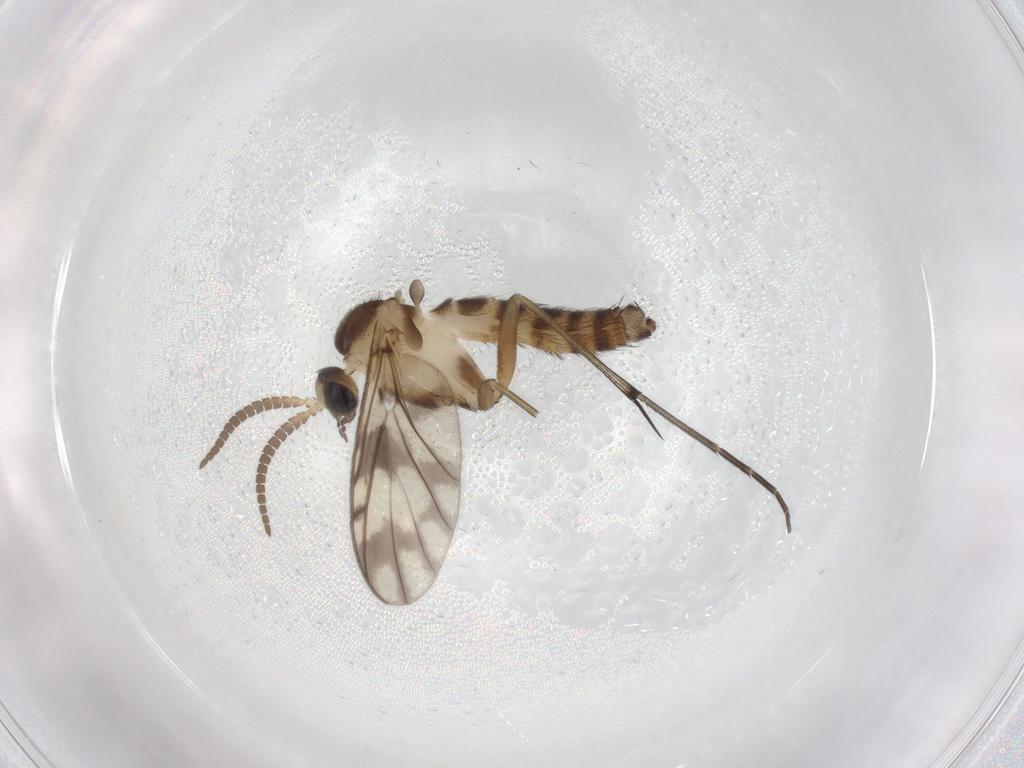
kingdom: Animalia
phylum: Arthropoda
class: Insecta
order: Diptera
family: Cecidomyiidae
